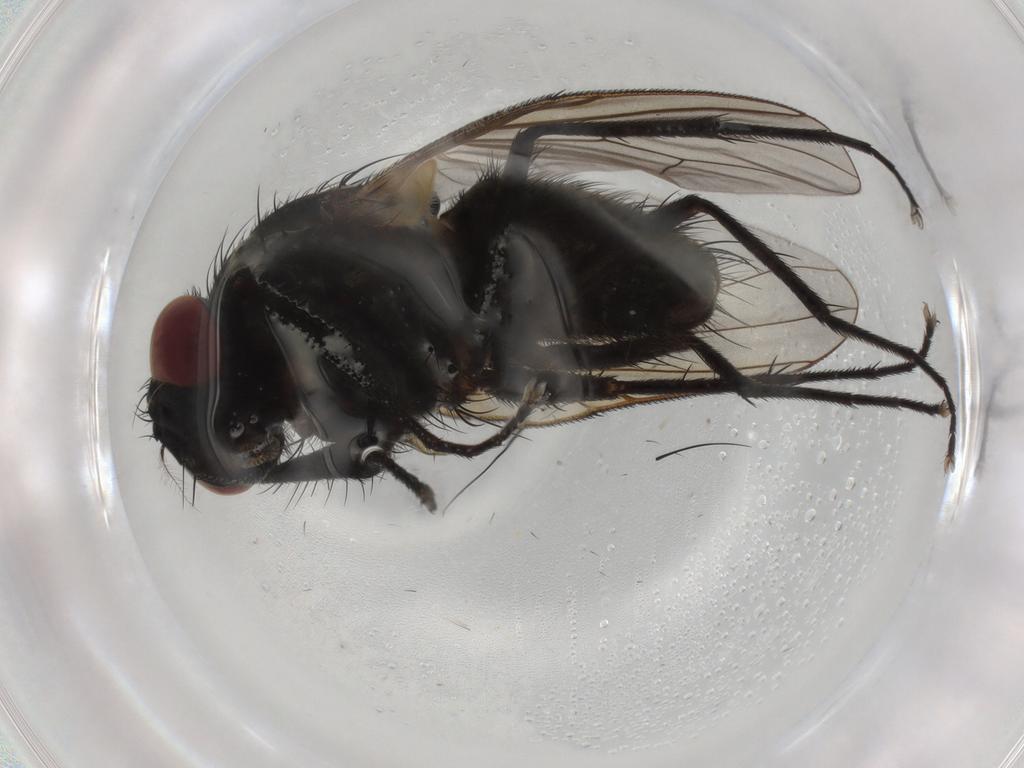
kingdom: Animalia
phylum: Arthropoda
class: Insecta
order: Diptera
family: Muscidae
